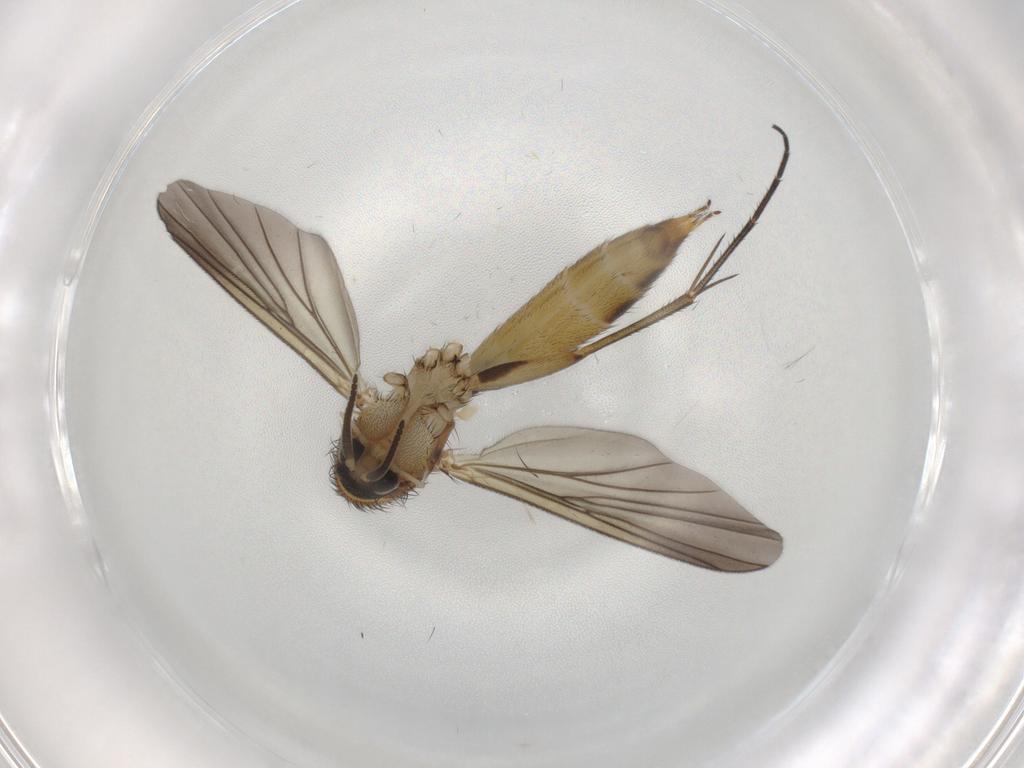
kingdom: Animalia
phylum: Arthropoda
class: Insecta
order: Diptera
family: Mycetophilidae
